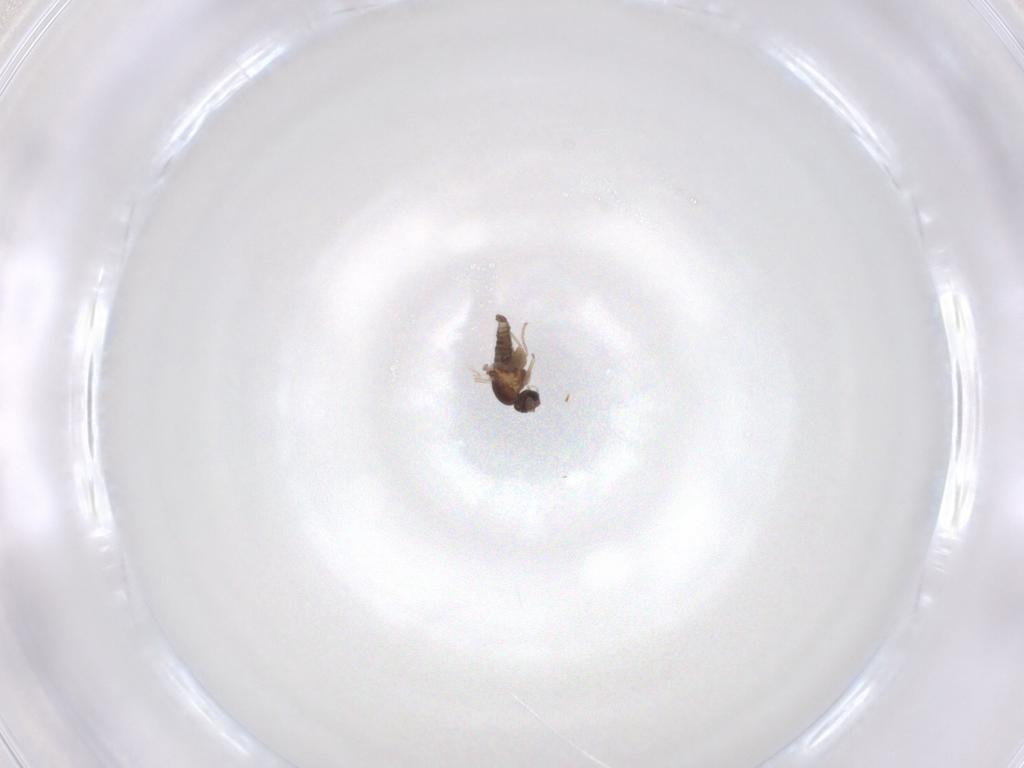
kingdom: Animalia
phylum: Arthropoda
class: Insecta
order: Diptera
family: Cecidomyiidae
